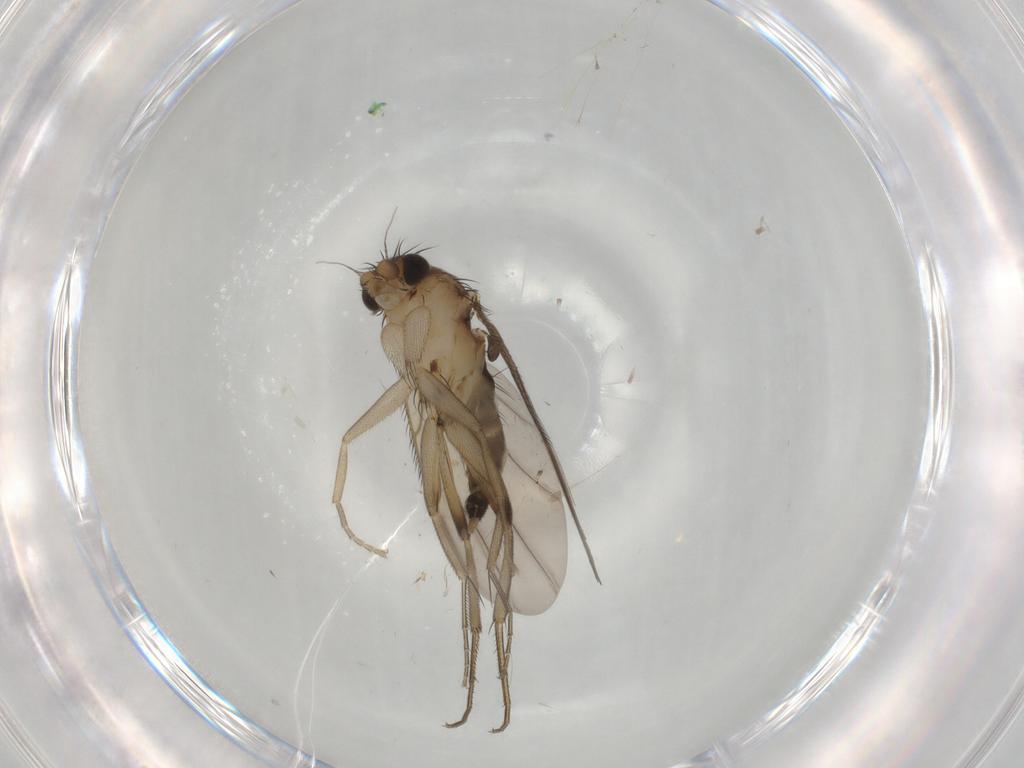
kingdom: Animalia
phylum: Arthropoda
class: Insecta
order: Diptera
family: Phoridae
